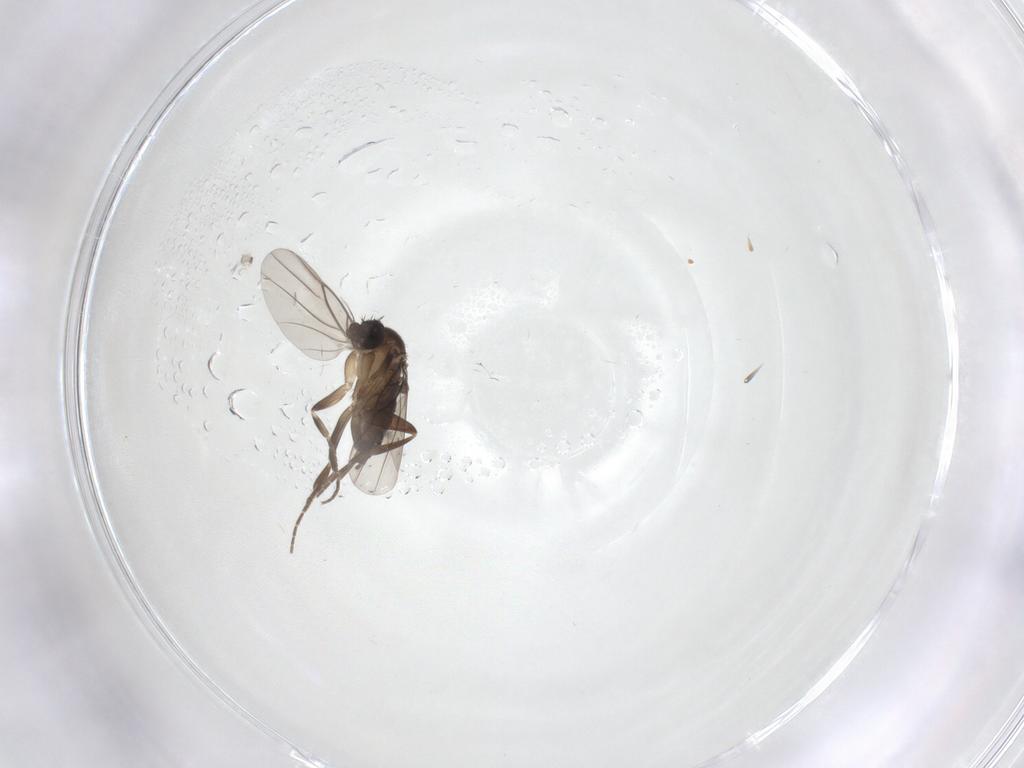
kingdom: Animalia
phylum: Arthropoda
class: Insecta
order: Diptera
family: Phoridae
